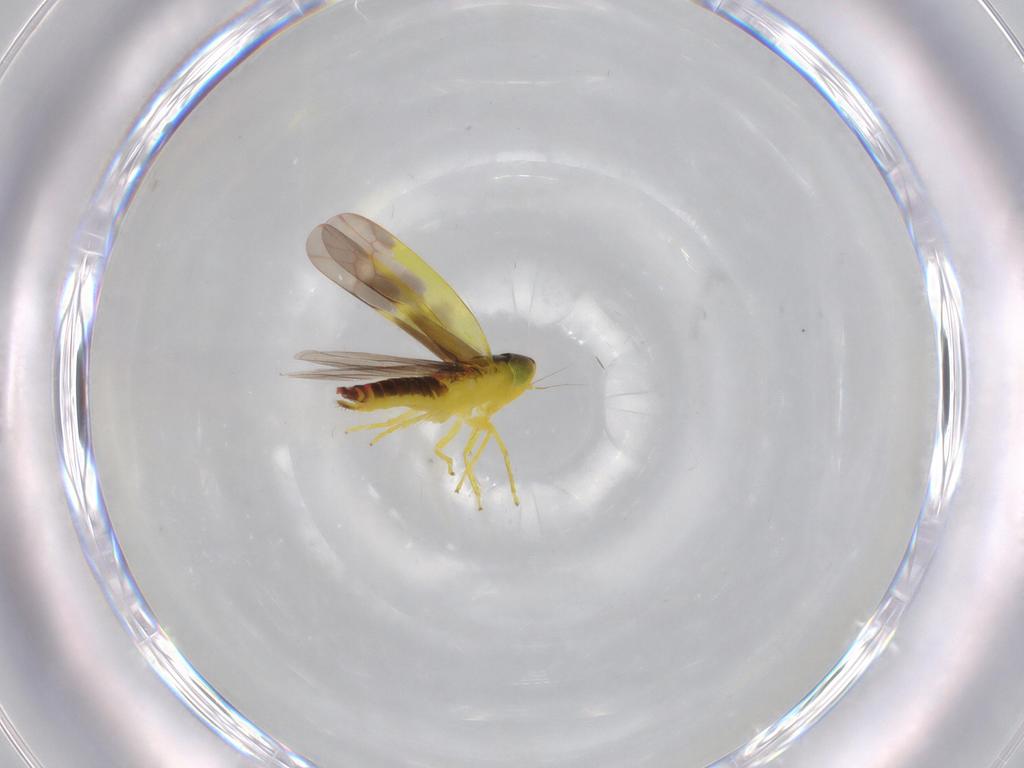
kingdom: Animalia
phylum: Arthropoda
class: Insecta
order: Hemiptera
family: Cicadellidae
